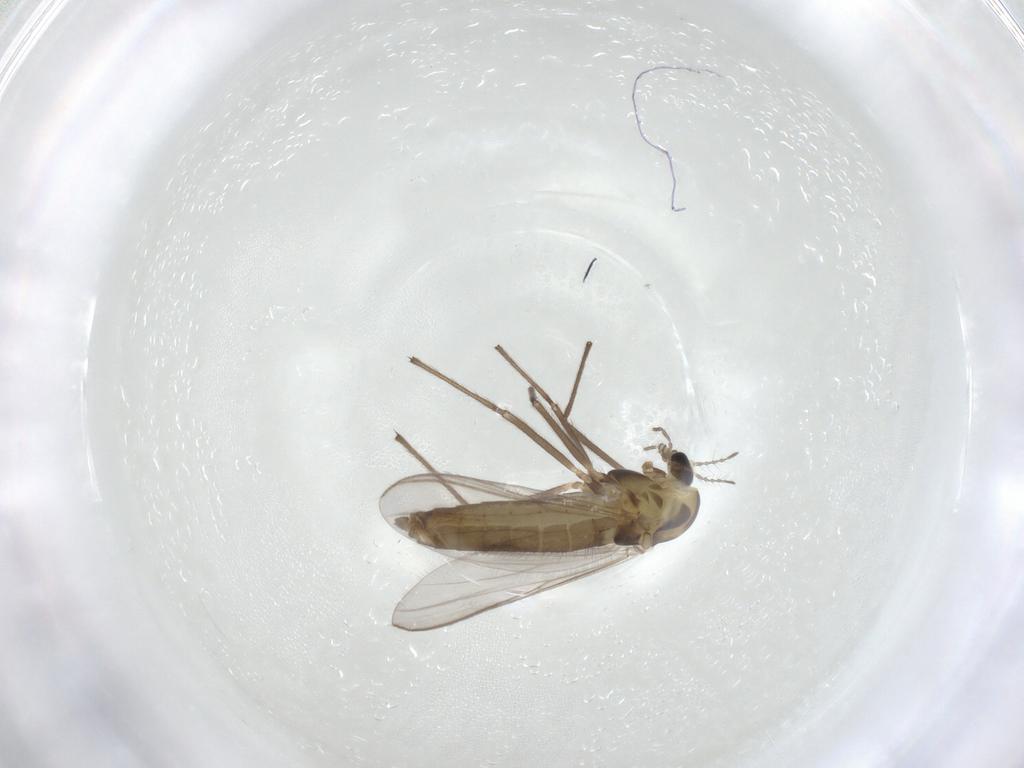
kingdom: Animalia
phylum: Arthropoda
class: Insecta
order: Diptera
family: Chironomidae
